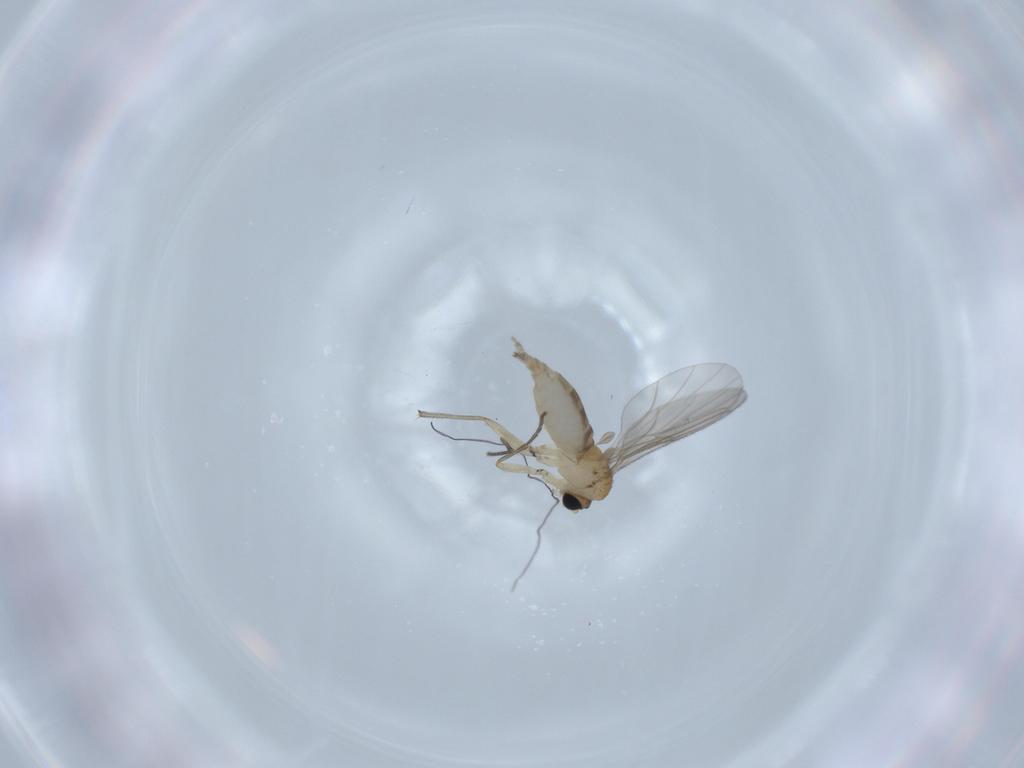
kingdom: Animalia
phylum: Arthropoda
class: Insecta
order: Diptera
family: Sciaridae
